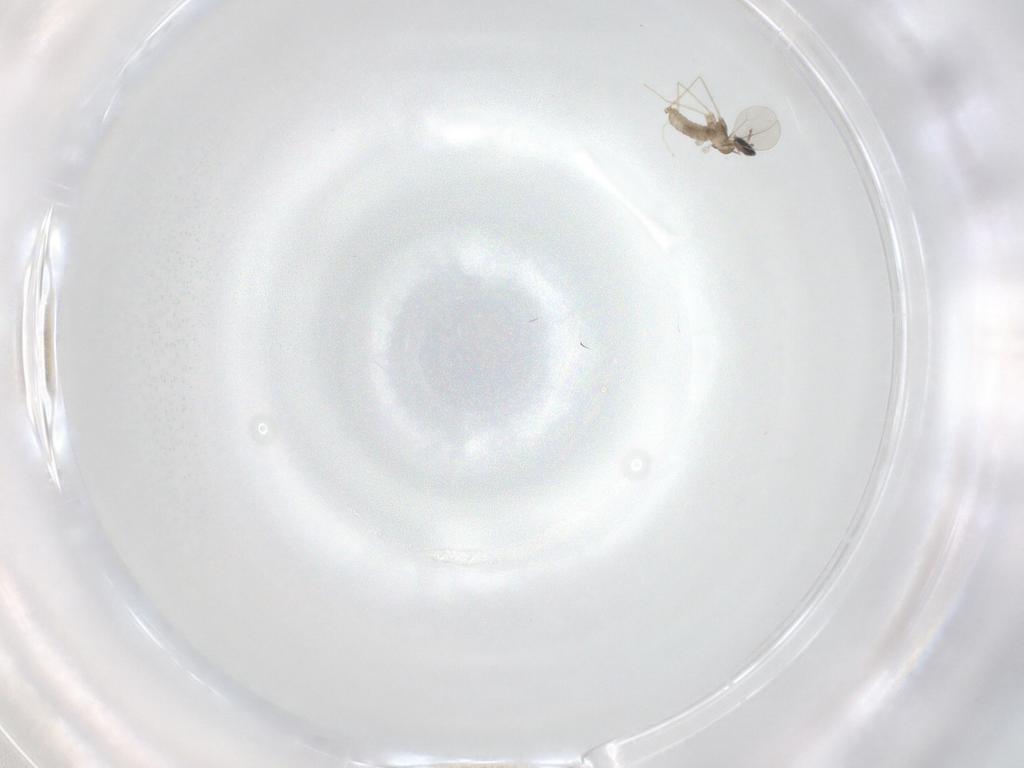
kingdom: Animalia
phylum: Arthropoda
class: Insecta
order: Diptera
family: Cecidomyiidae
